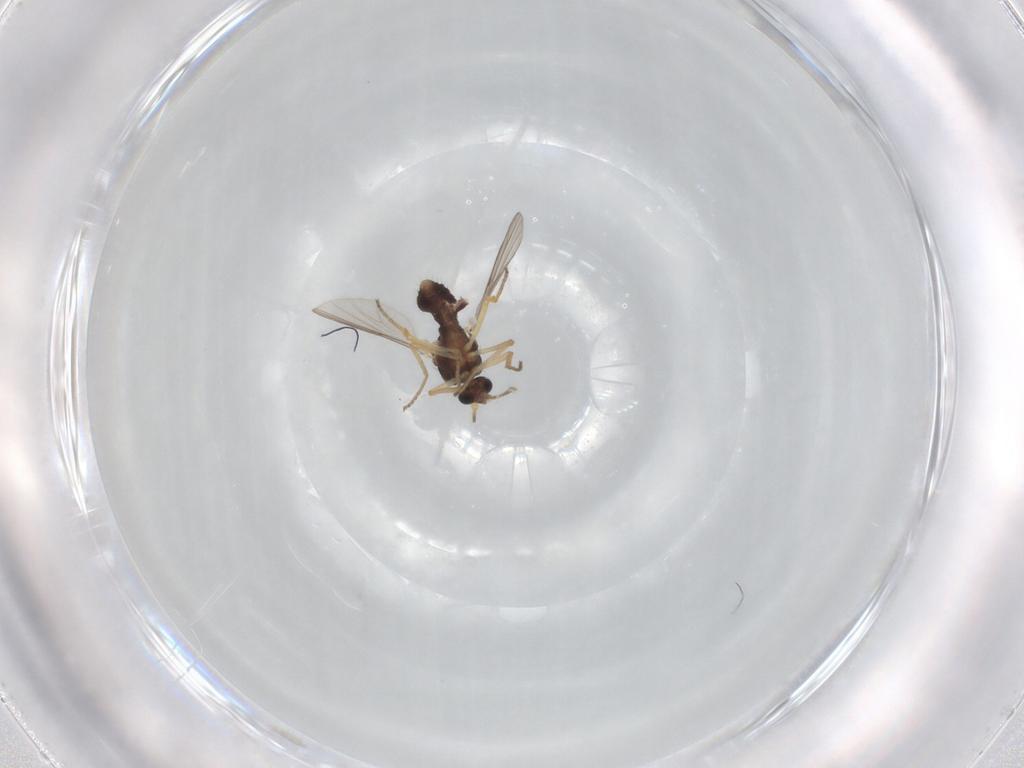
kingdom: Animalia
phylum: Arthropoda
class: Insecta
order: Diptera
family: Ceratopogonidae
